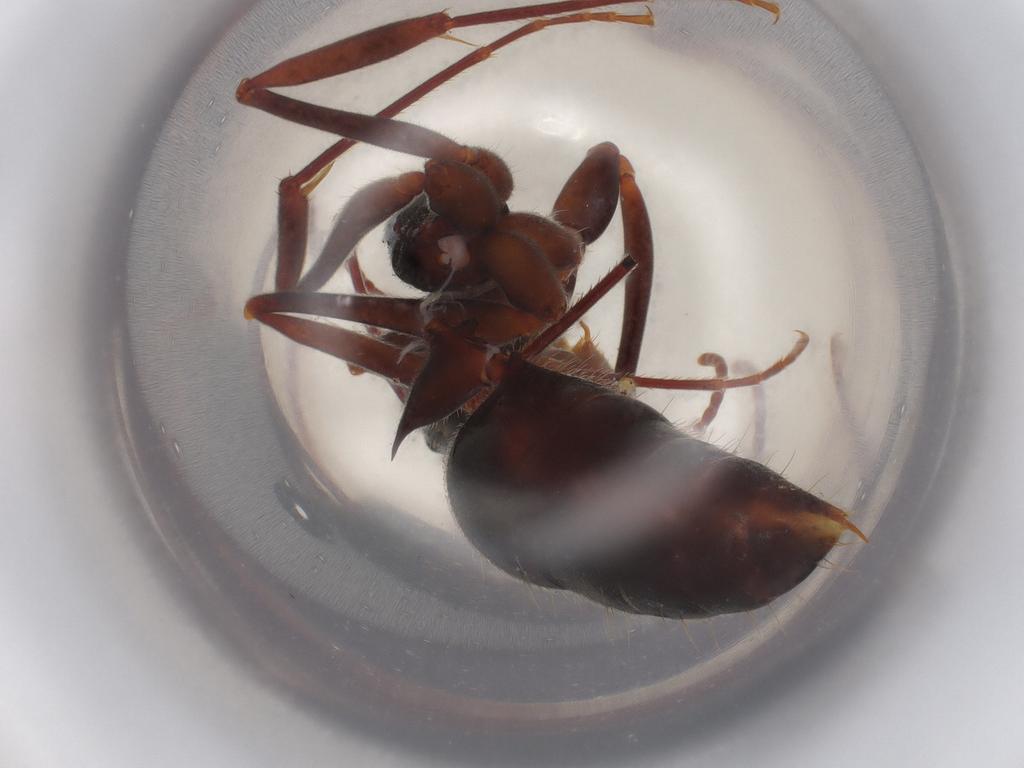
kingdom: Animalia
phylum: Arthropoda
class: Insecta
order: Hymenoptera
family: Formicidae
